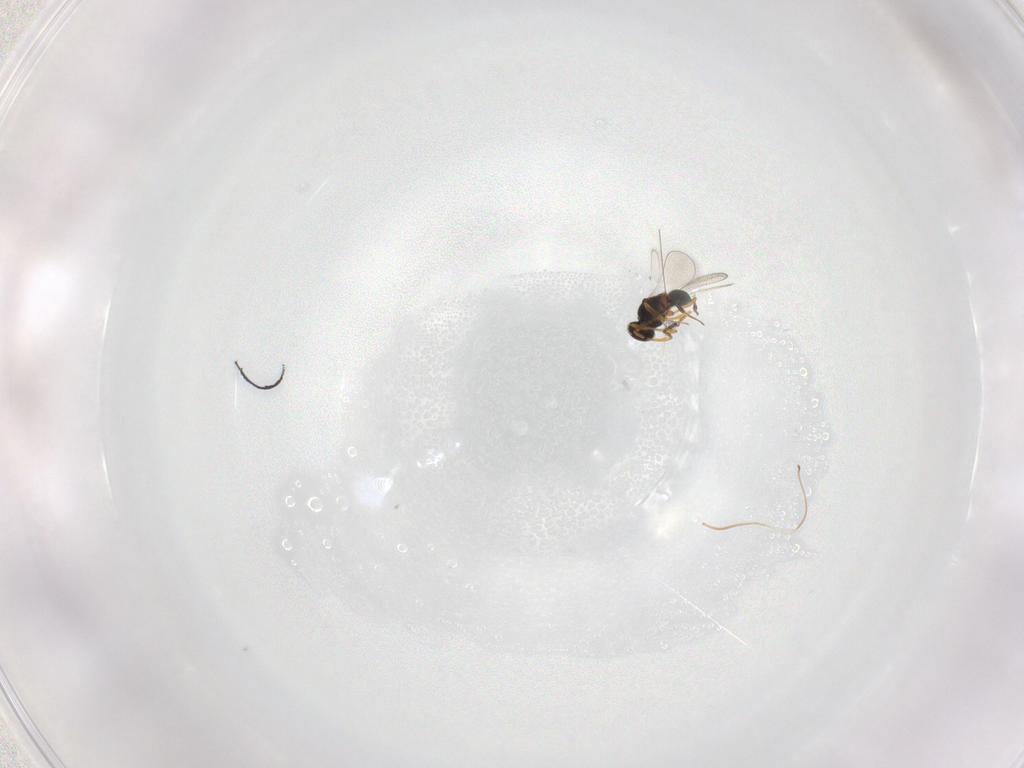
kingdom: Animalia
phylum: Arthropoda
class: Insecta
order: Hymenoptera
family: Platygastridae
